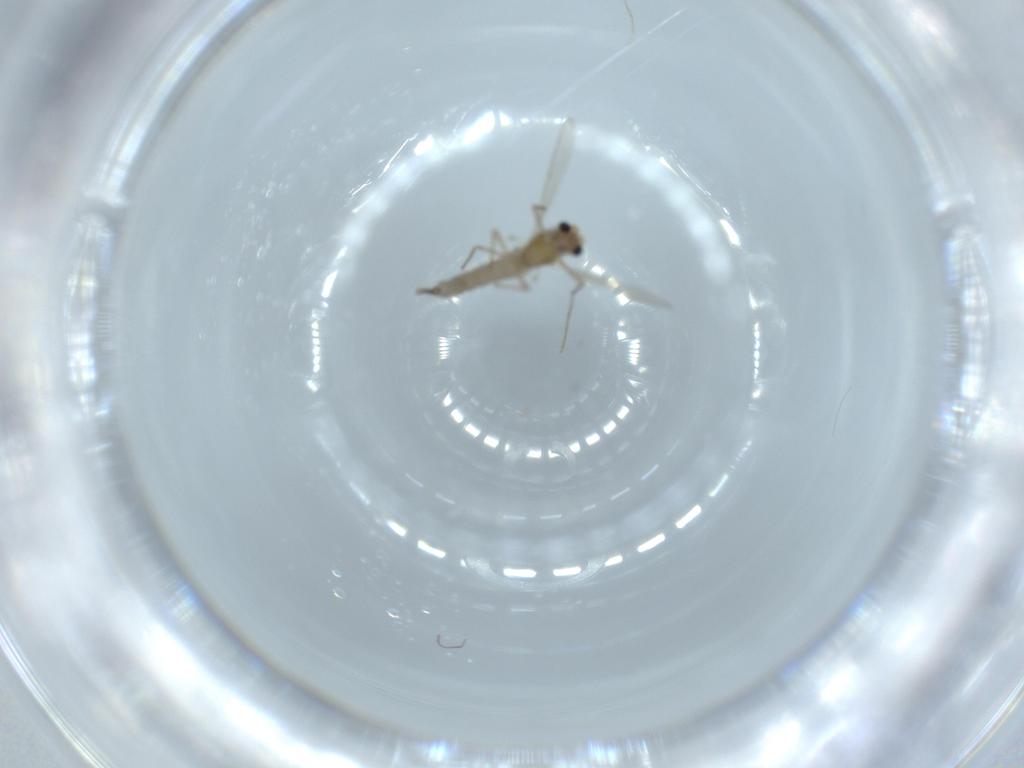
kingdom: Animalia
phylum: Arthropoda
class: Insecta
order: Diptera
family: Chironomidae
